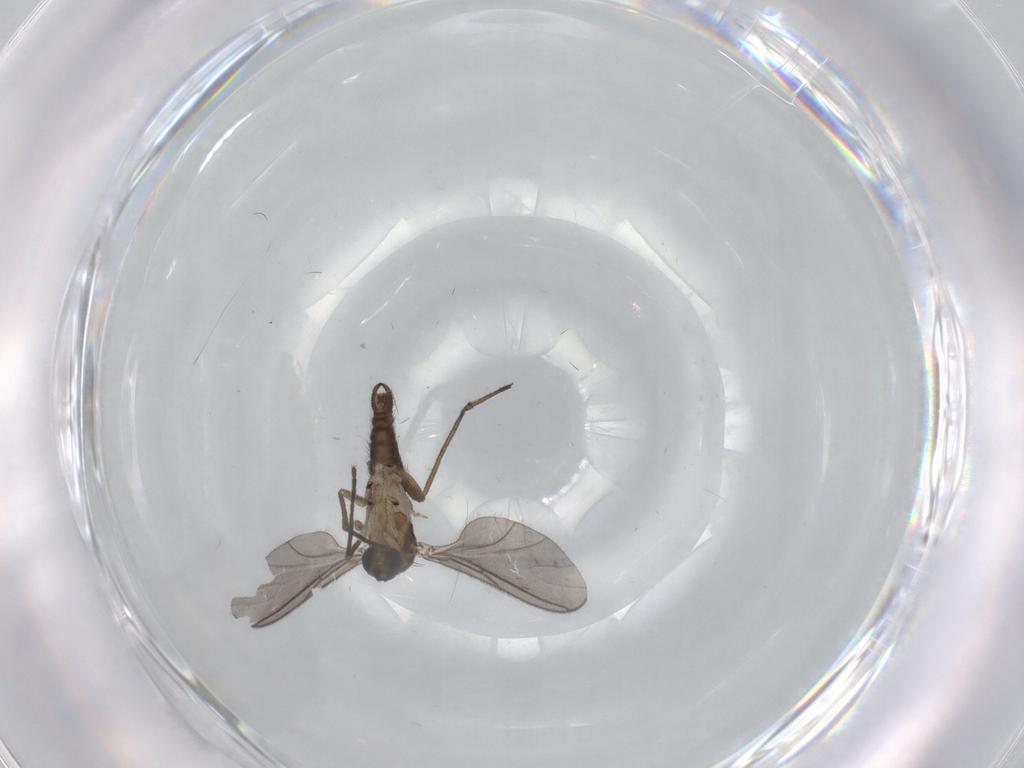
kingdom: Animalia
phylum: Arthropoda
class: Insecta
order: Diptera
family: Sciaridae
